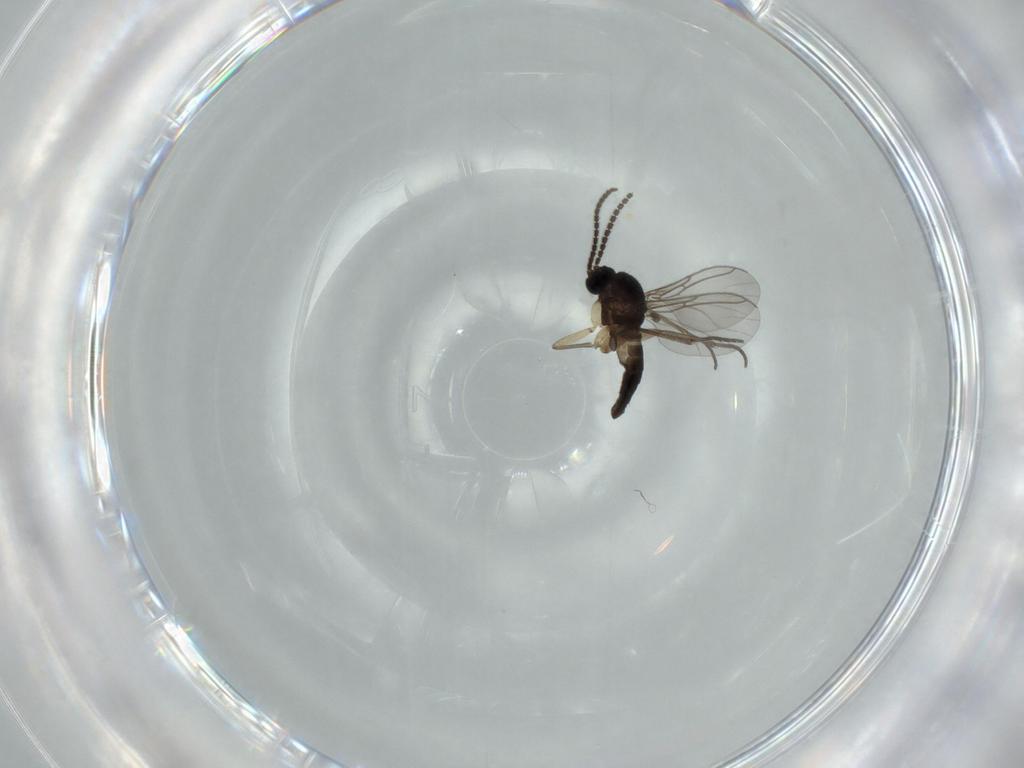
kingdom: Animalia
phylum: Arthropoda
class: Insecta
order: Diptera
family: Sciaridae
